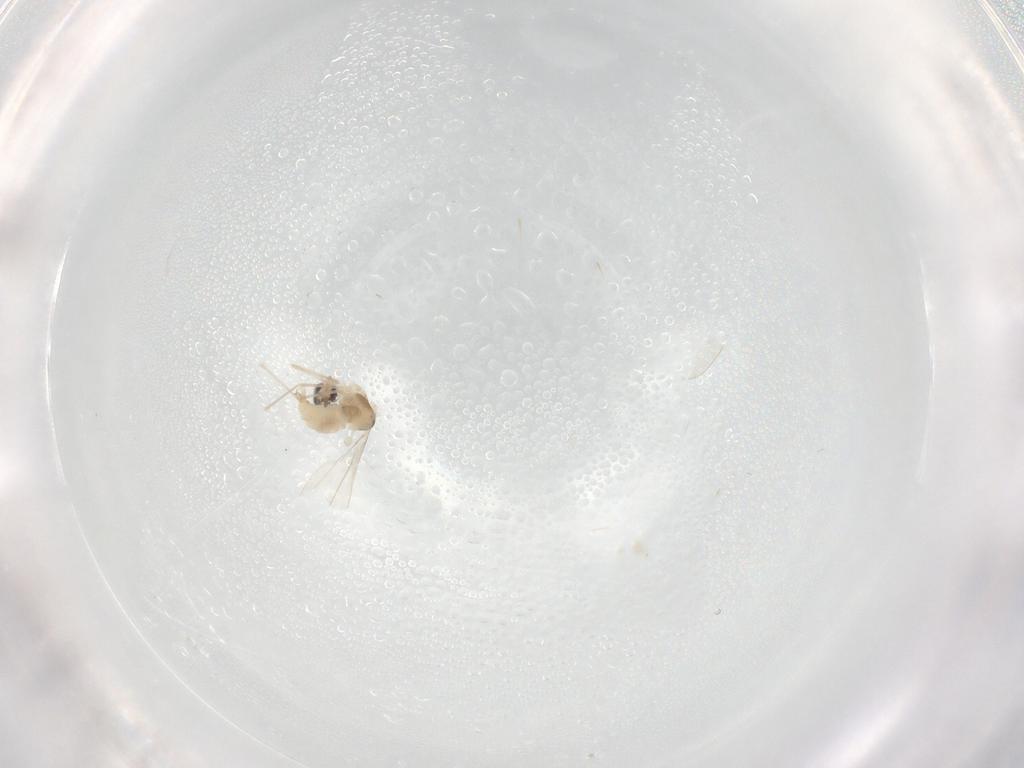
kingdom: Animalia
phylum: Arthropoda
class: Insecta
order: Diptera
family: Cecidomyiidae
